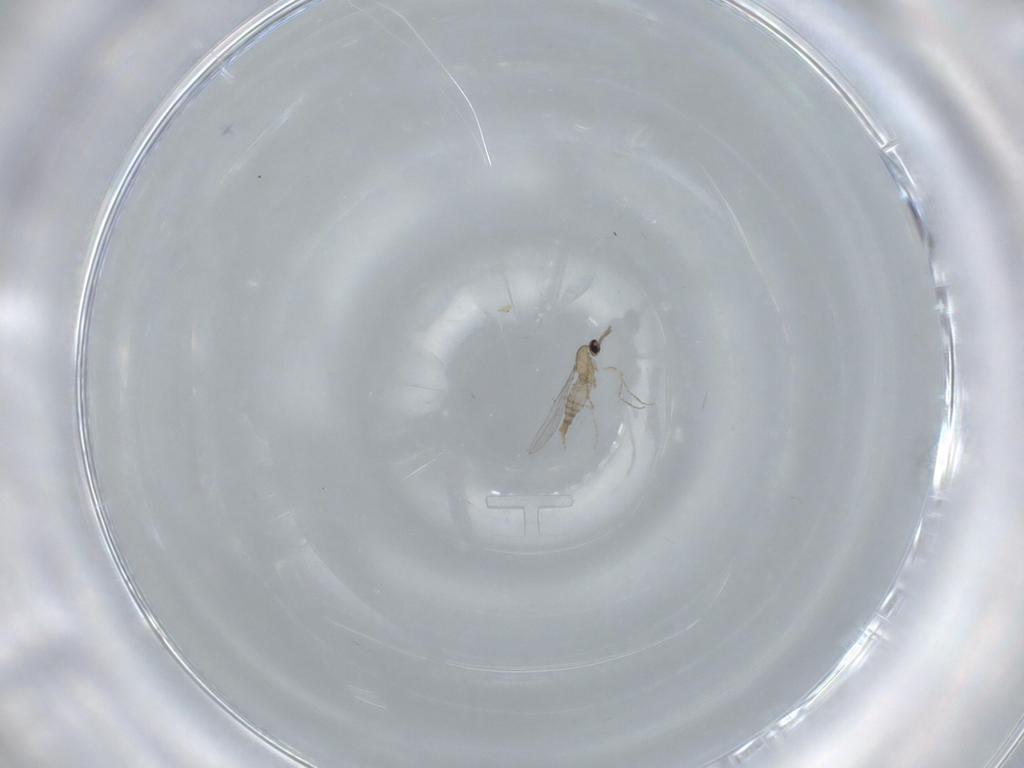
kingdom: Animalia
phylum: Arthropoda
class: Insecta
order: Diptera
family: Cecidomyiidae
